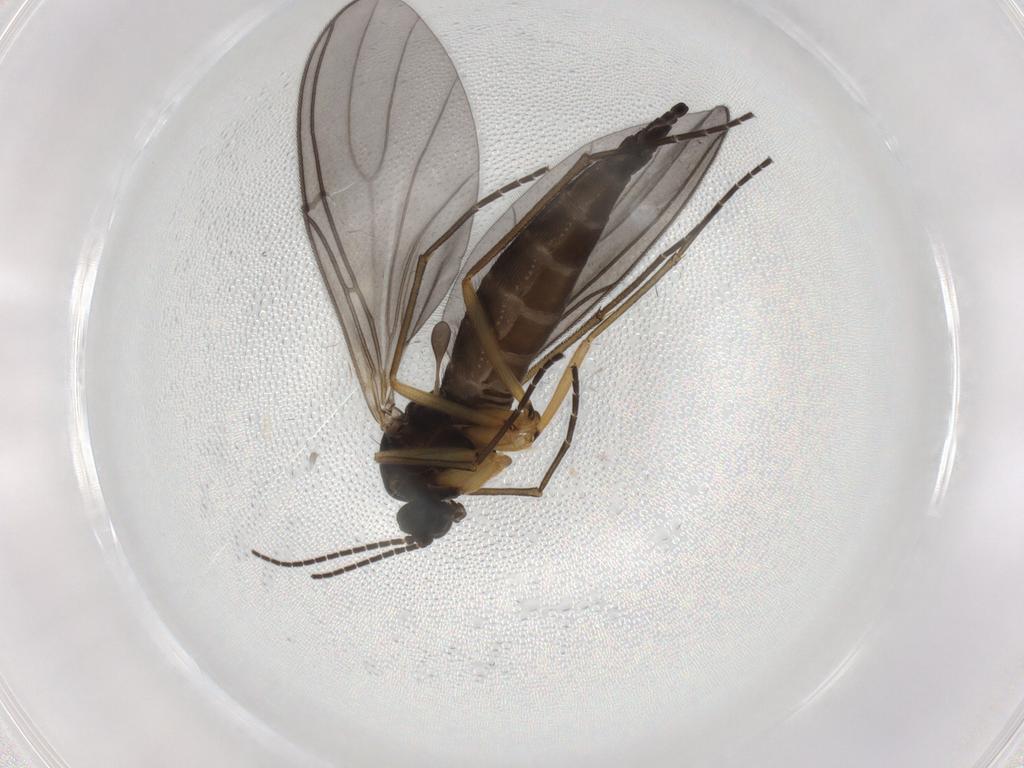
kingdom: Animalia
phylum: Arthropoda
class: Insecta
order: Diptera
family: Sciaridae
